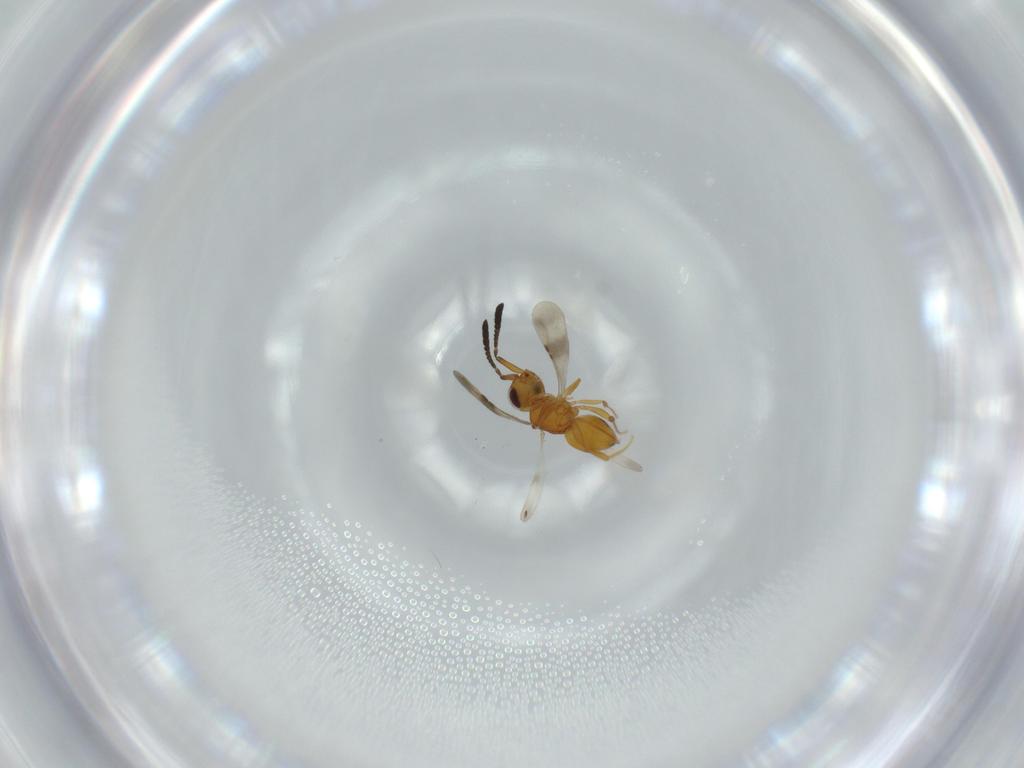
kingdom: Animalia
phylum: Arthropoda
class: Insecta
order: Hymenoptera
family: Ceraphronidae
